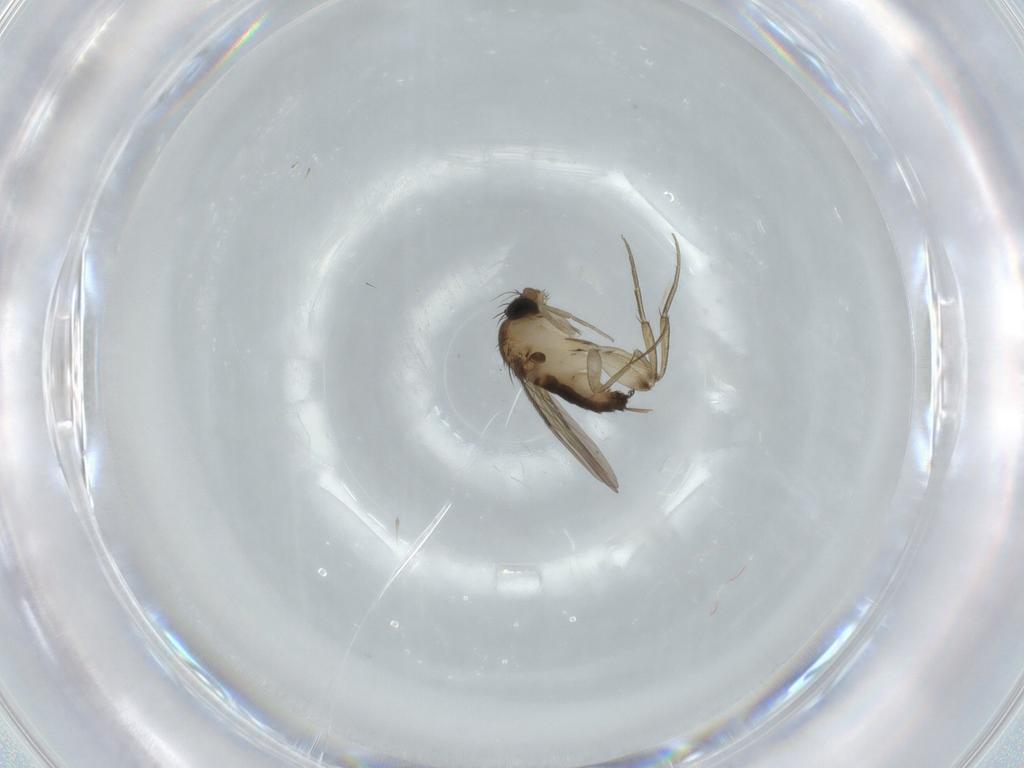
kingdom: Animalia
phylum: Arthropoda
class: Insecta
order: Diptera
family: Phoridae
